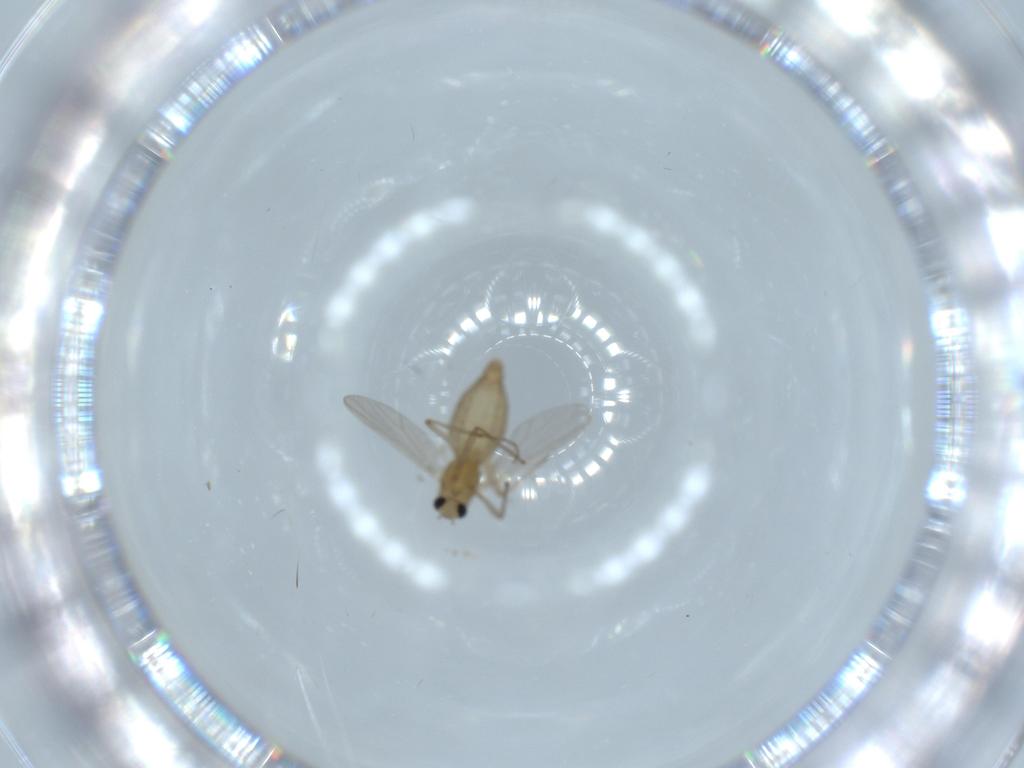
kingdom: Animalia
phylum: Arthropoda
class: Insecta
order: Diptera
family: Chironomidae
